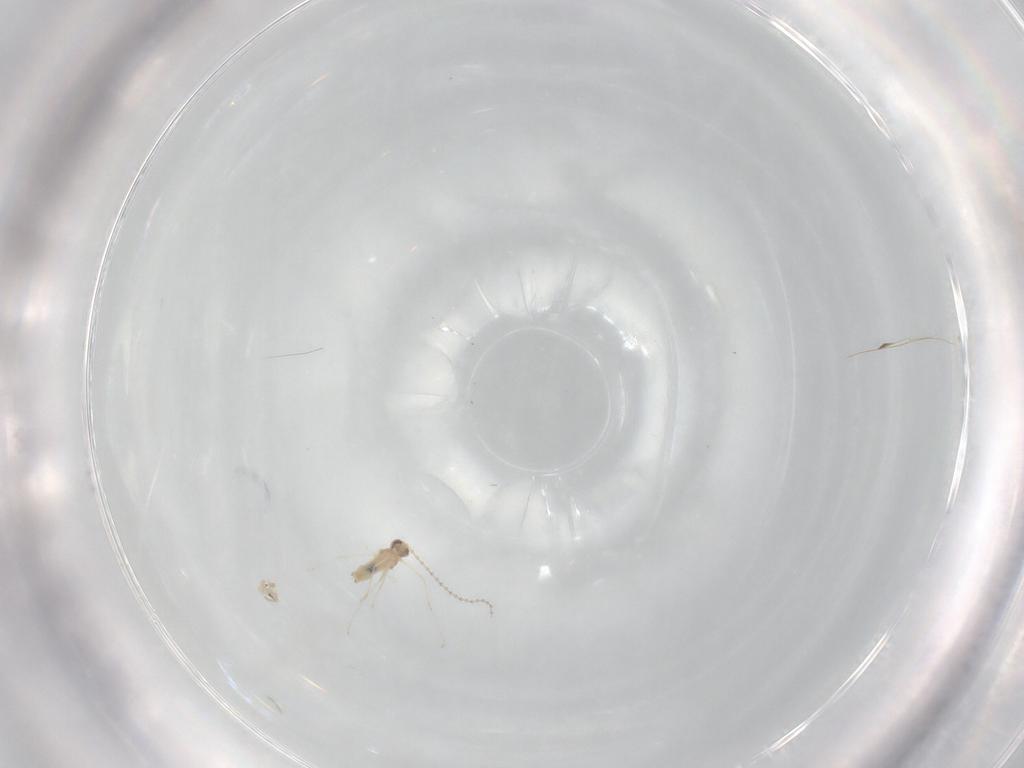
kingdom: Animalia
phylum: Arthropoda
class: Insecta
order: Diptera
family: Cecidomyiidae
